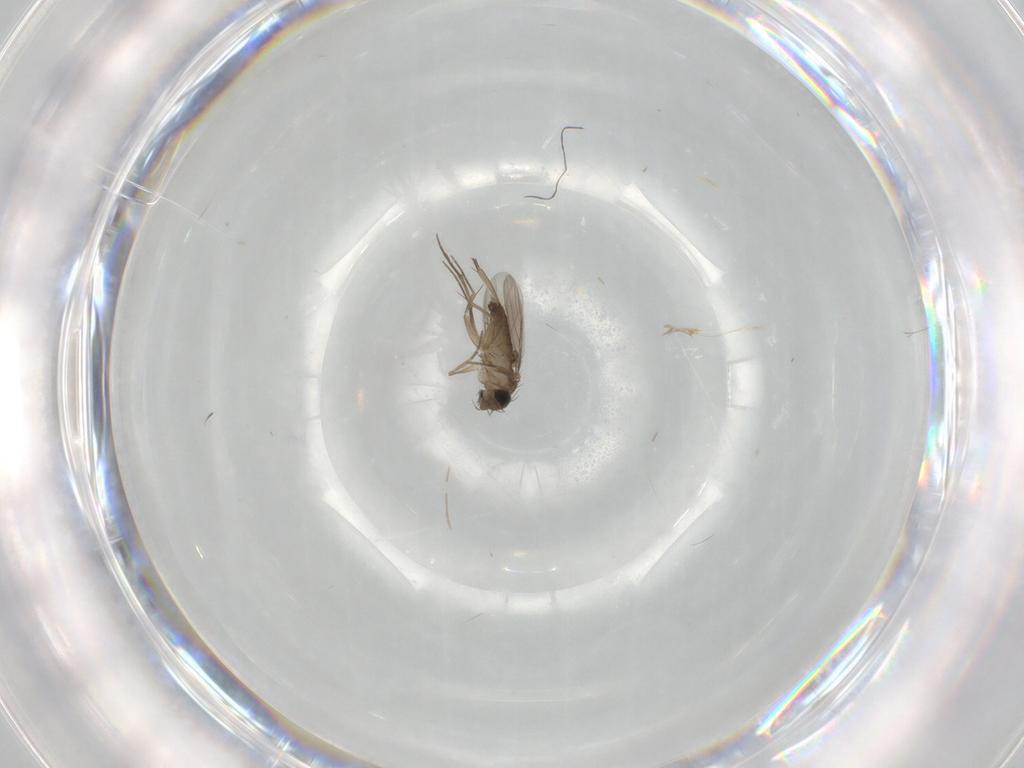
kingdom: Animalia
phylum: Arthropoda
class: Insecta
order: Diptera
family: Phoridae
